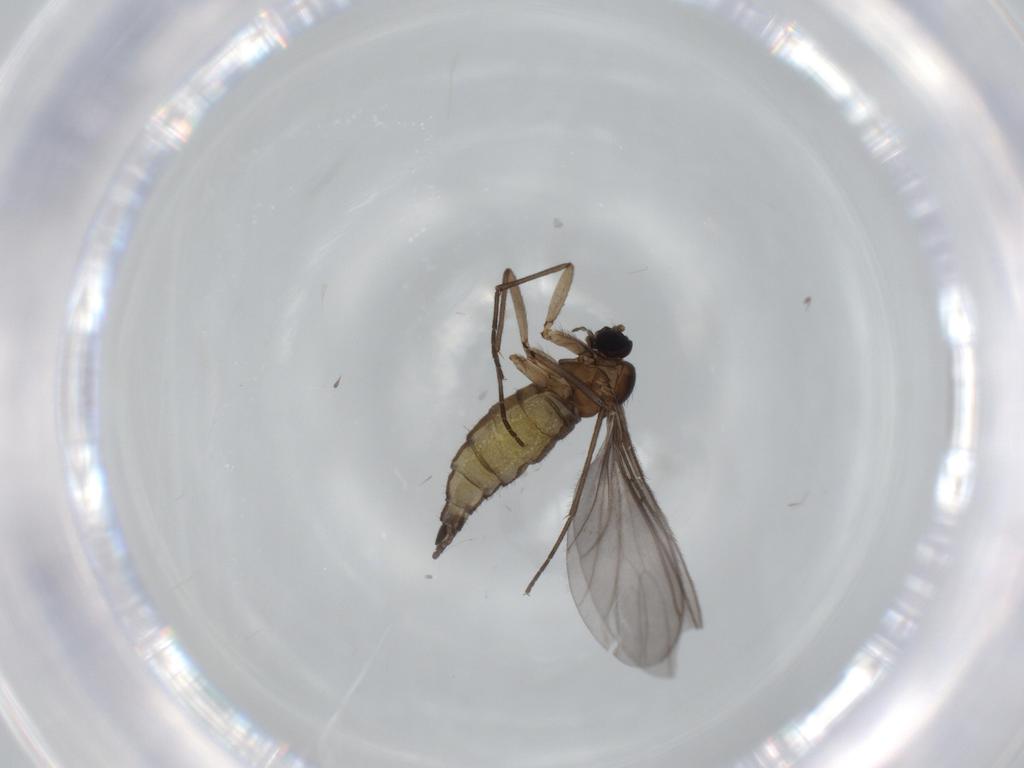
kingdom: Animalia
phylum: Arthropoda
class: Insecta
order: Diptera
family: Sciaridae
